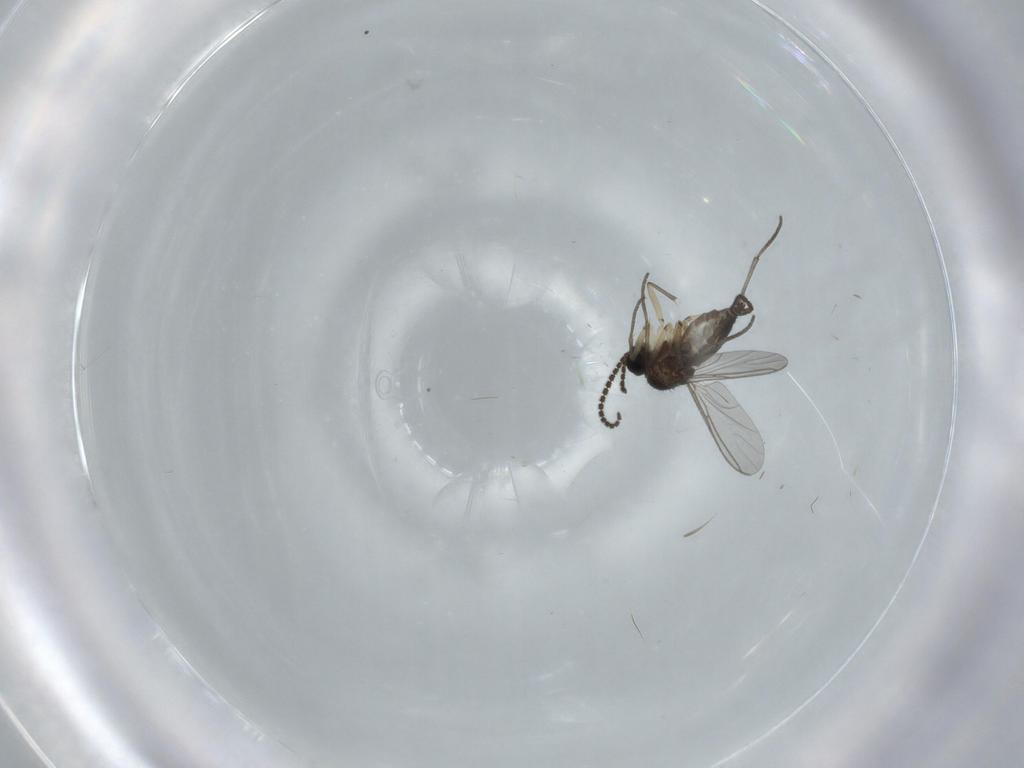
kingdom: Animalia
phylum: Arthropoda
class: Insecta
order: Diptera
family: Sciaridae
